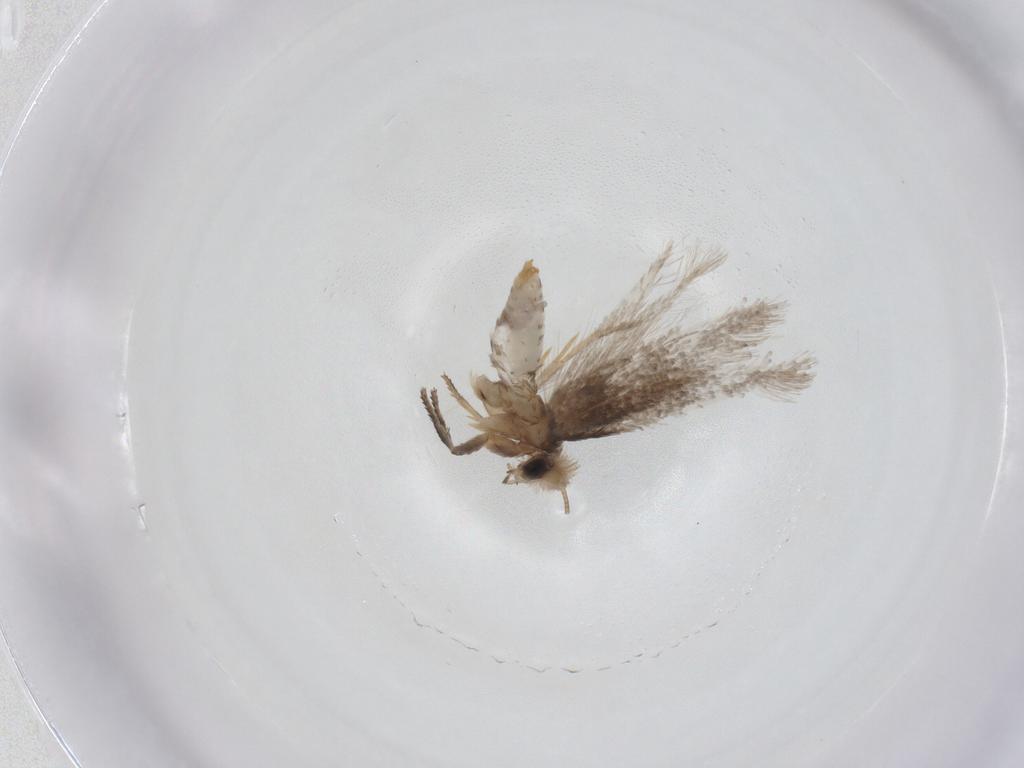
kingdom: Animalia
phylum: Arthropoda
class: Insecta
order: Lepidoptera
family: Nepticulidae
